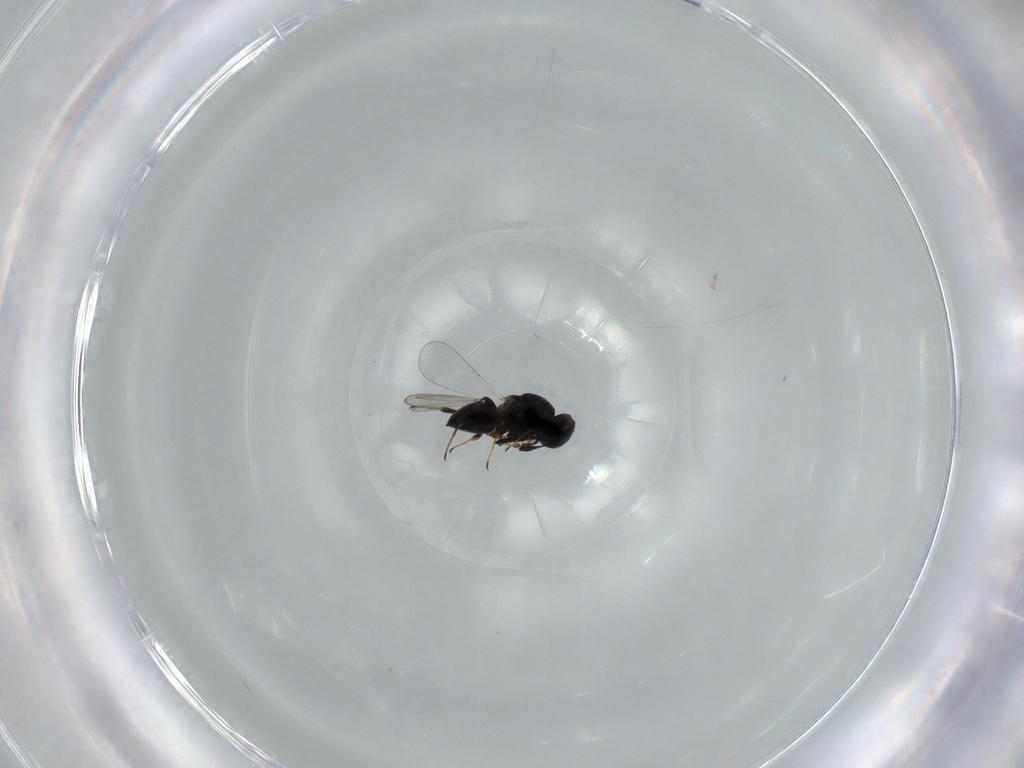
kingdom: Animalia
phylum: Arthropoda
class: Insecta
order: Hymenoptera
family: Platygastridae
